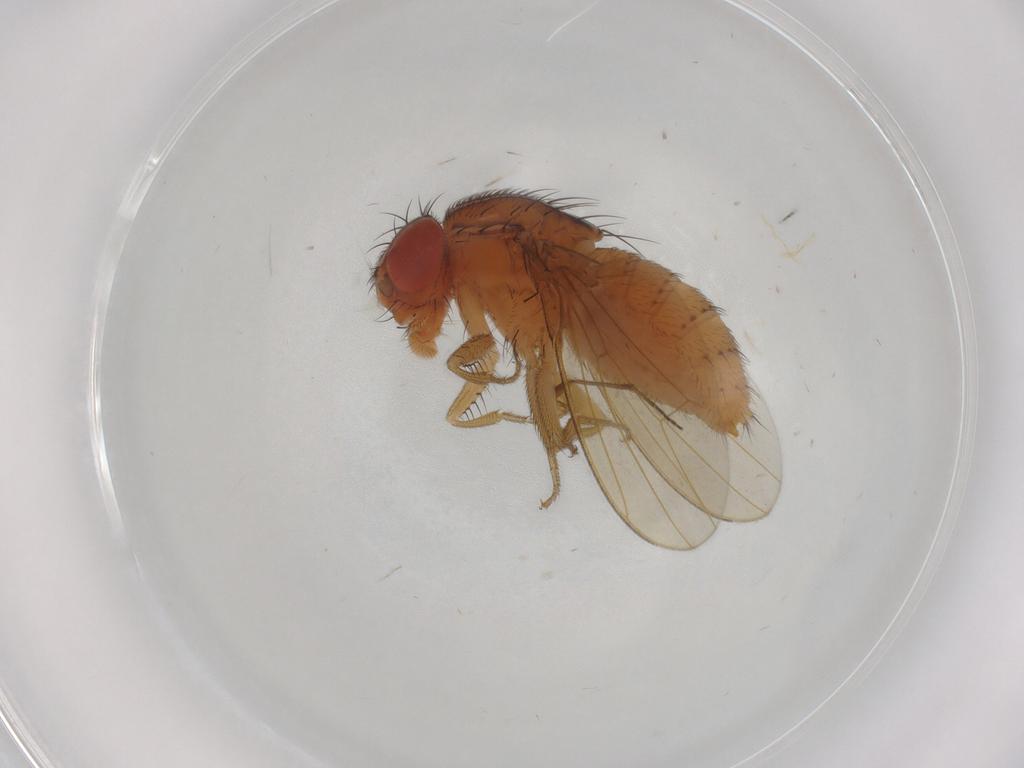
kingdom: Animalia
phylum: Arthropoda
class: Insecta
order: Diptera
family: Drosophilidae
